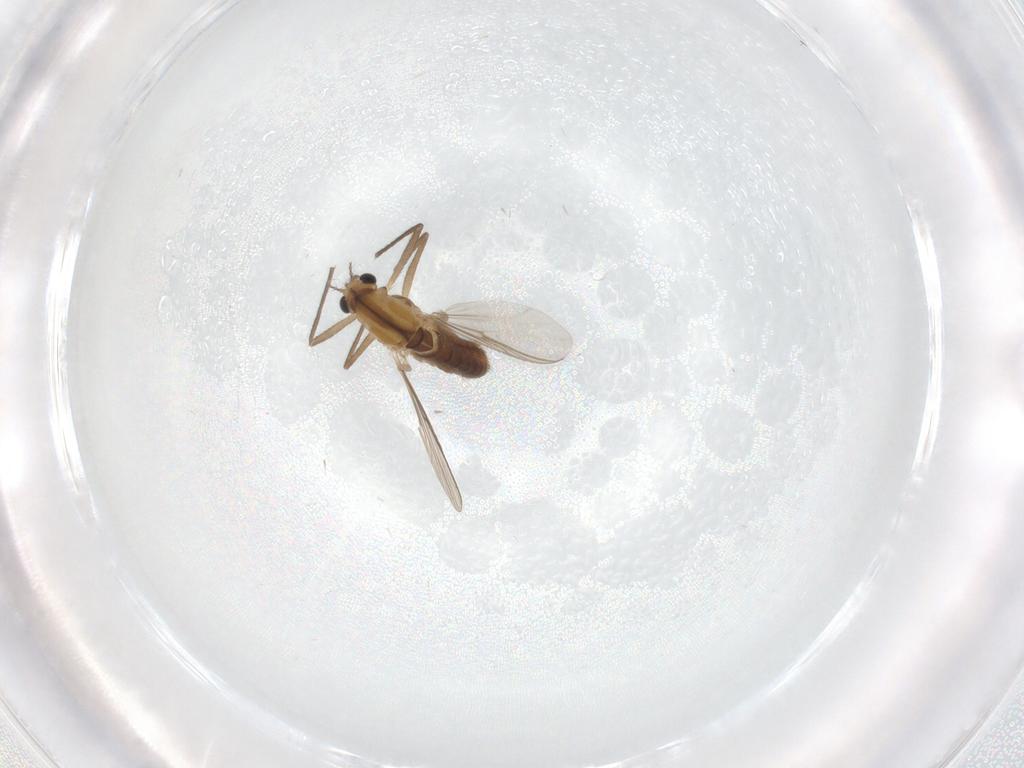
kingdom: Animalia
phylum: Arthropoda
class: Insecta
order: Diptera
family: Chironomidae
